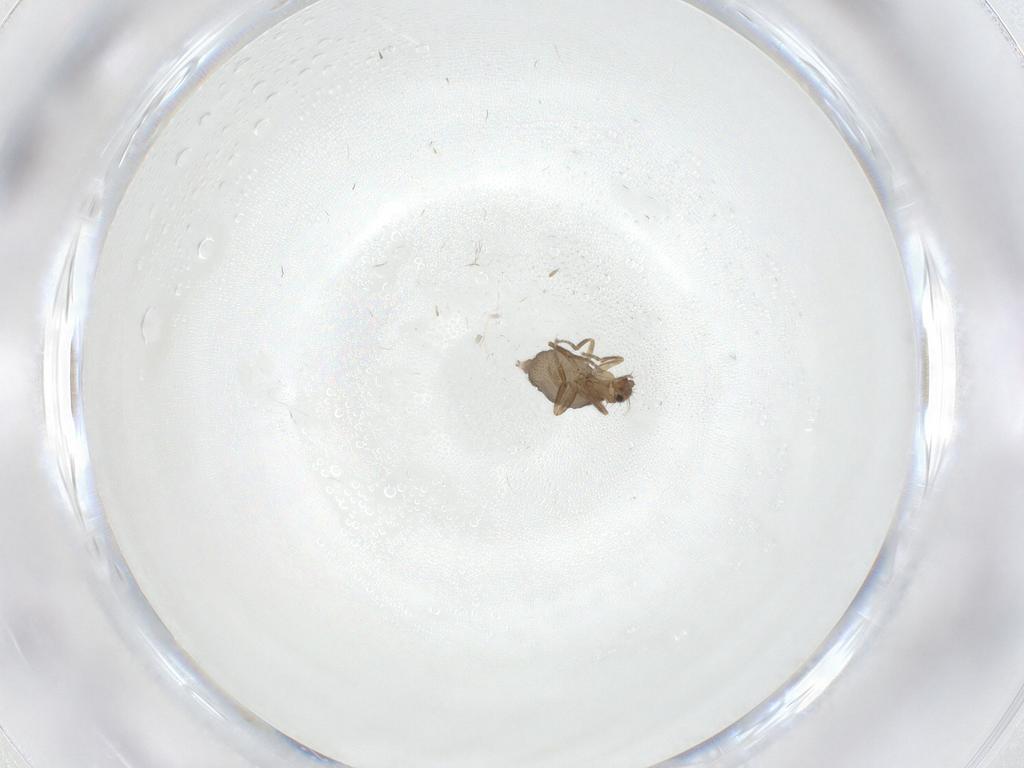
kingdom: Animalia
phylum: Arthropoda
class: Insecta
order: Diptera
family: Phoridae
